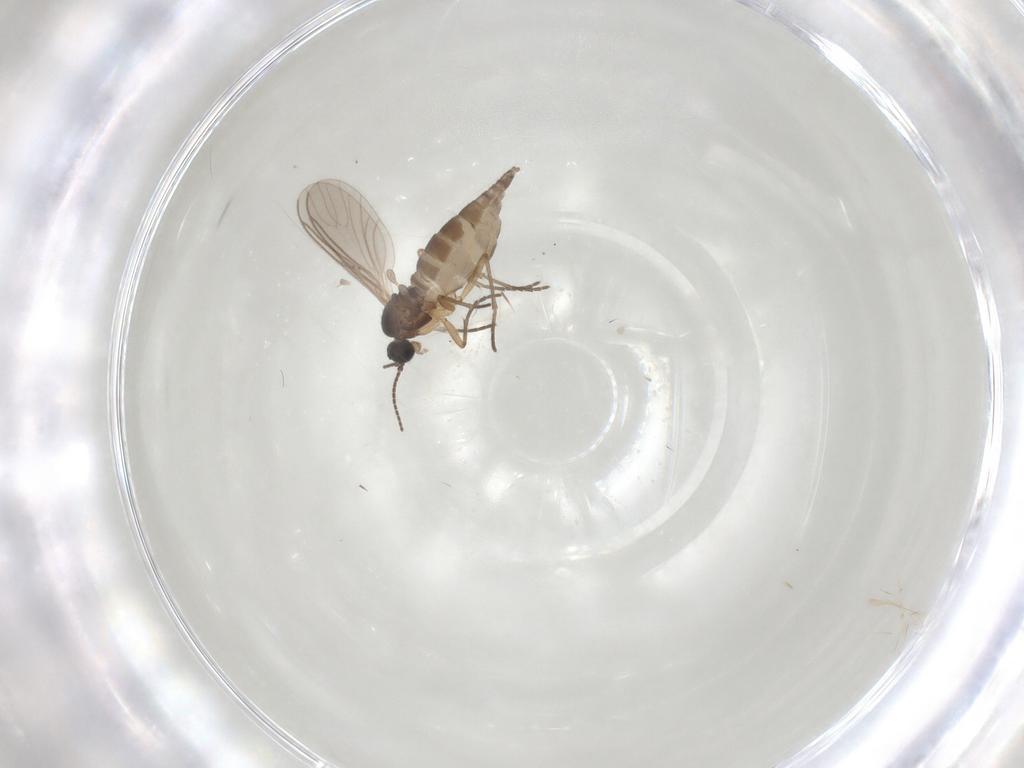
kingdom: Animalia
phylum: Arthropoda
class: Insecta
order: Diptera
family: Sciaridae
